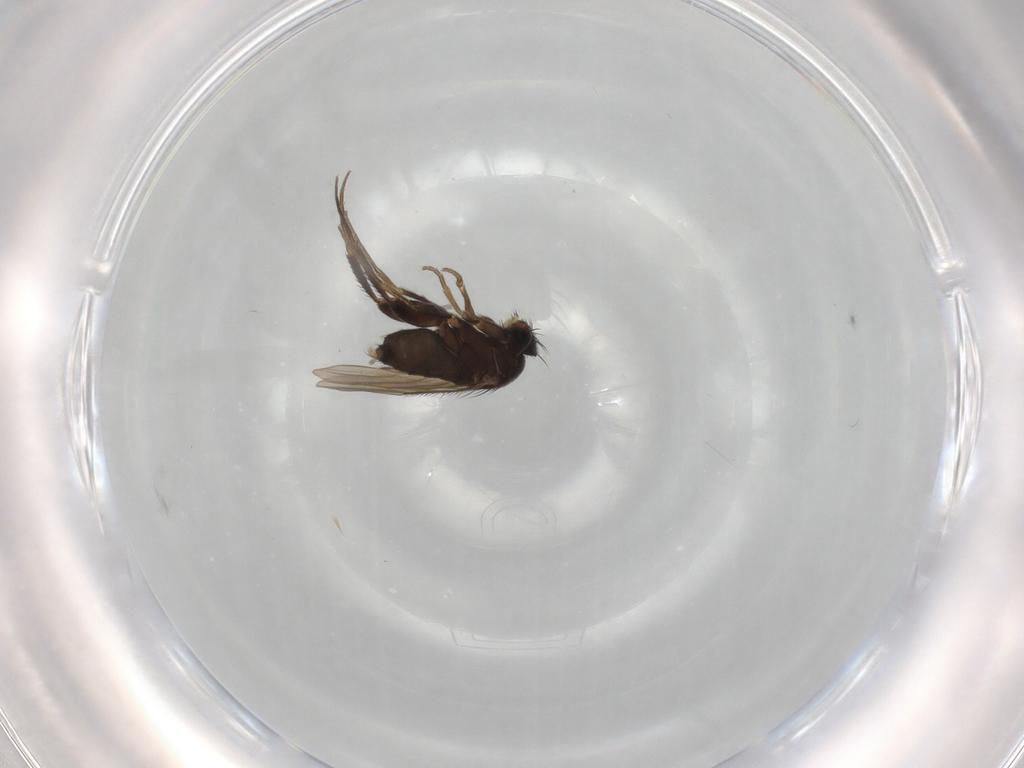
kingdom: Animalia
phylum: Arthropoda
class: Insecta
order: Diptera
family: Phoridae
